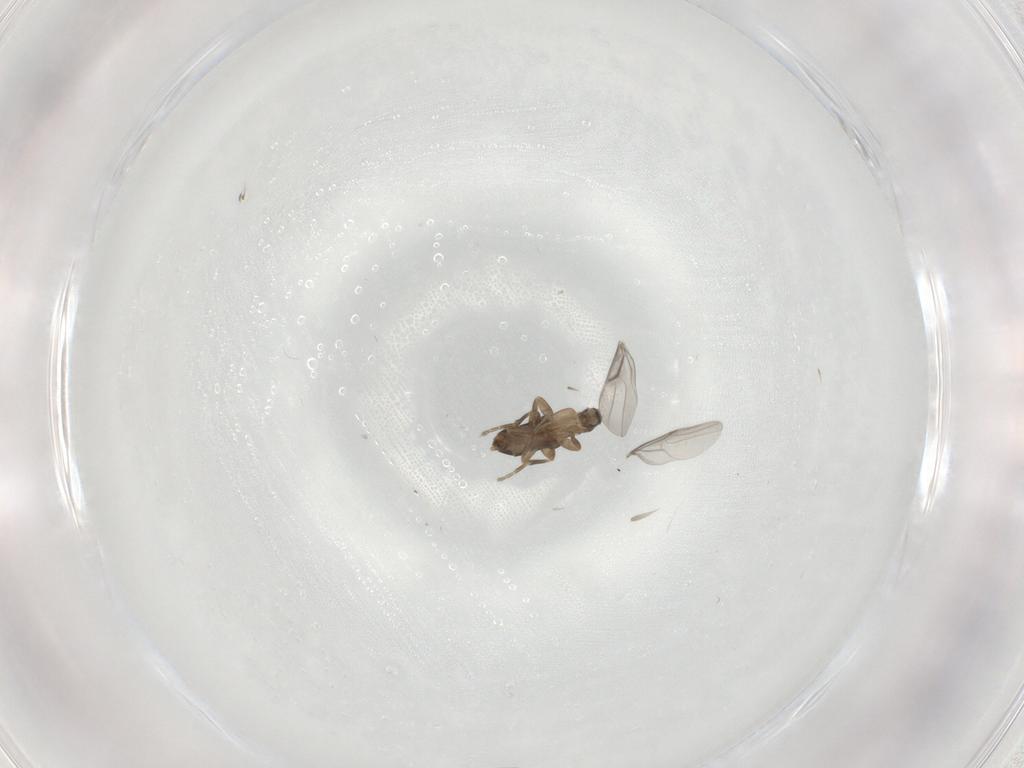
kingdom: Animalia
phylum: Arthropoda
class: Insecta
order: Diptera
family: Phoridae
